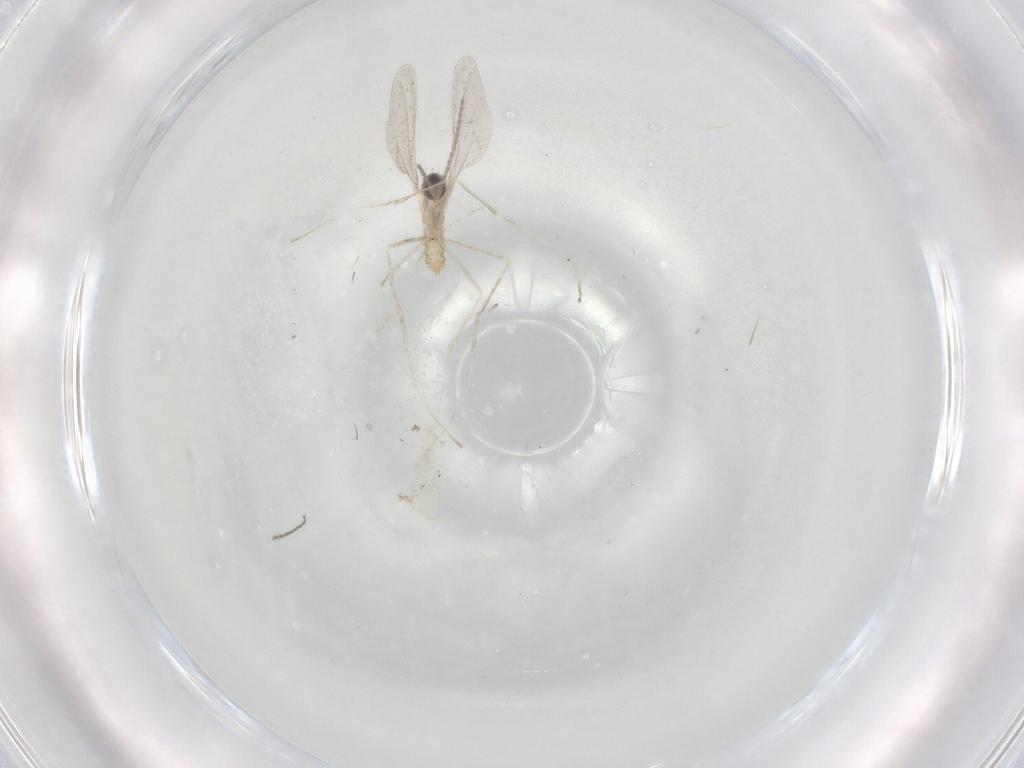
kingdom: Animalia
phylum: Arthropoda
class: Insecta
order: Diptera
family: Cecidomyiidae
